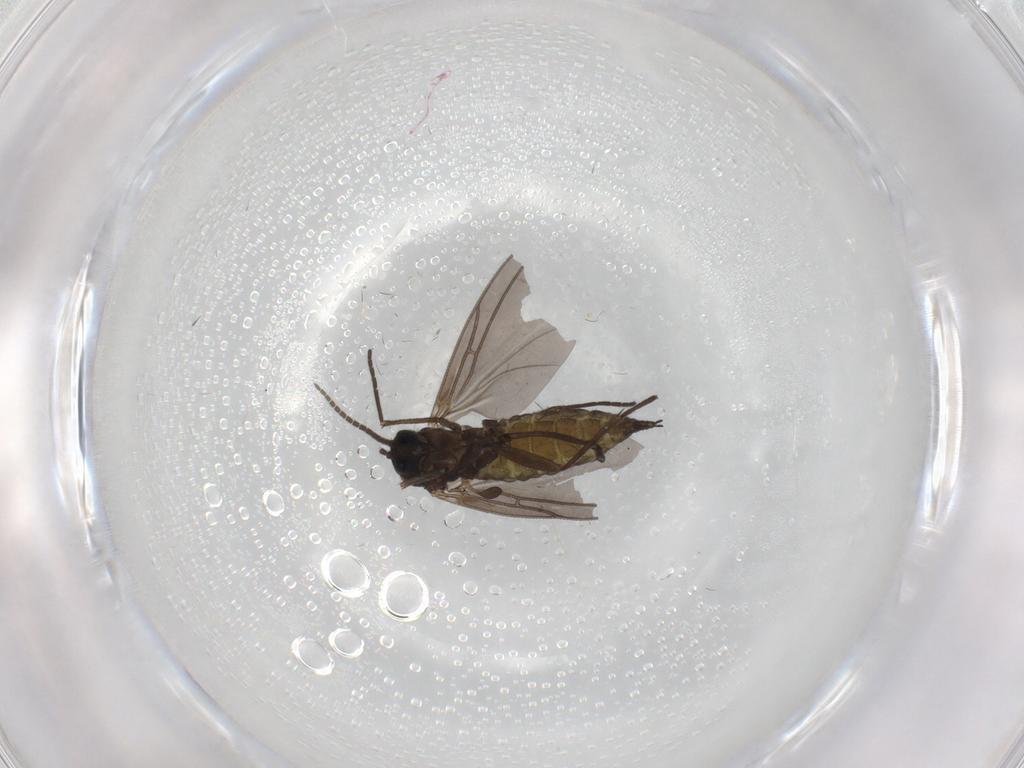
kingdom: Animalia
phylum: Arthropoda
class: Insecta
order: Diptera
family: Sciaridae
